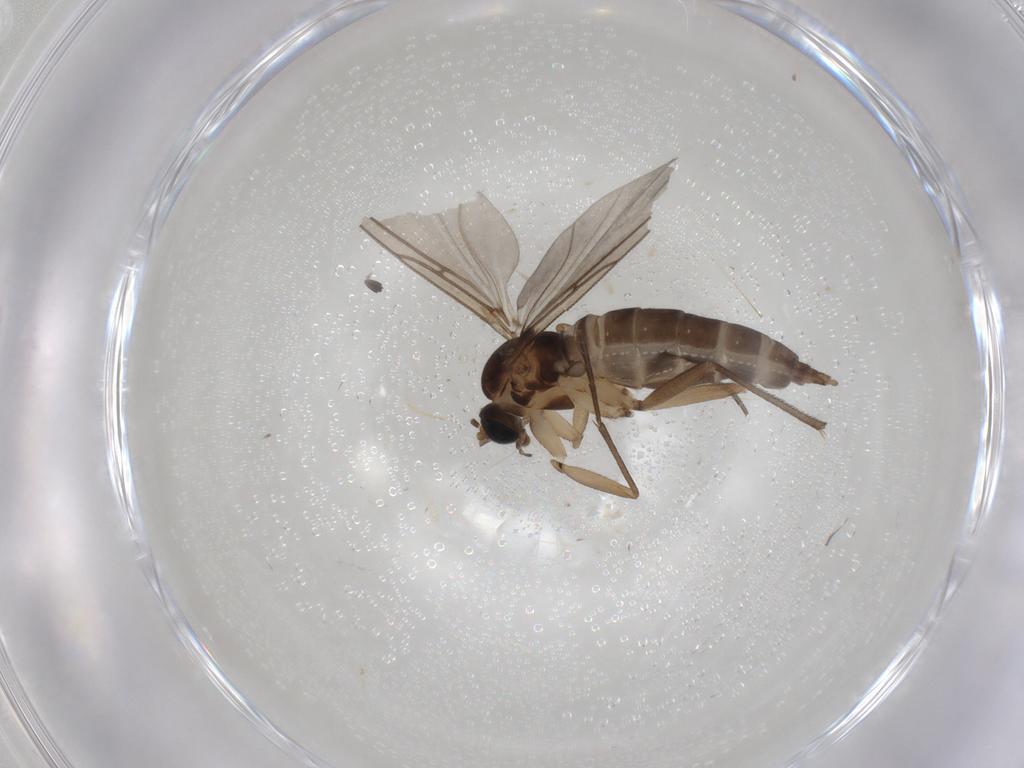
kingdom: Animalia
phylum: Arthropoda
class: Insecta
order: Diptera
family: Sciaridae
